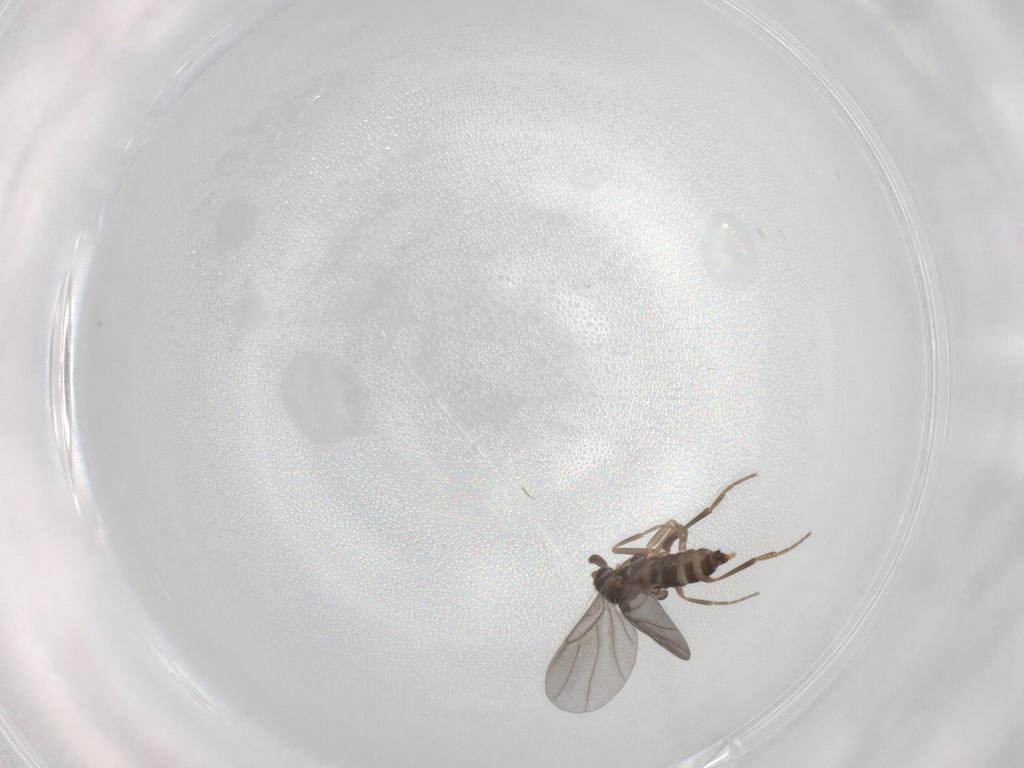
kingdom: Animalia
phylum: Arthropoda
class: Insecta
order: Diptera
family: Sciaridae
